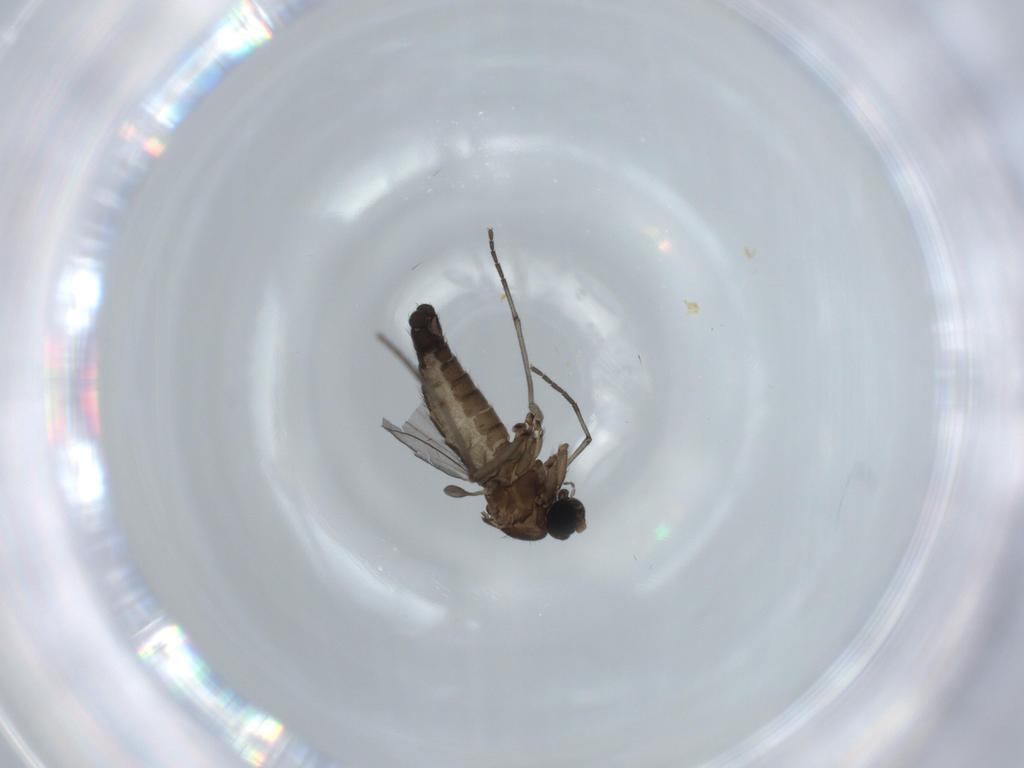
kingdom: Animalia
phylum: Arthropoda
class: Insecta
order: Diptera
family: Sciaridae
